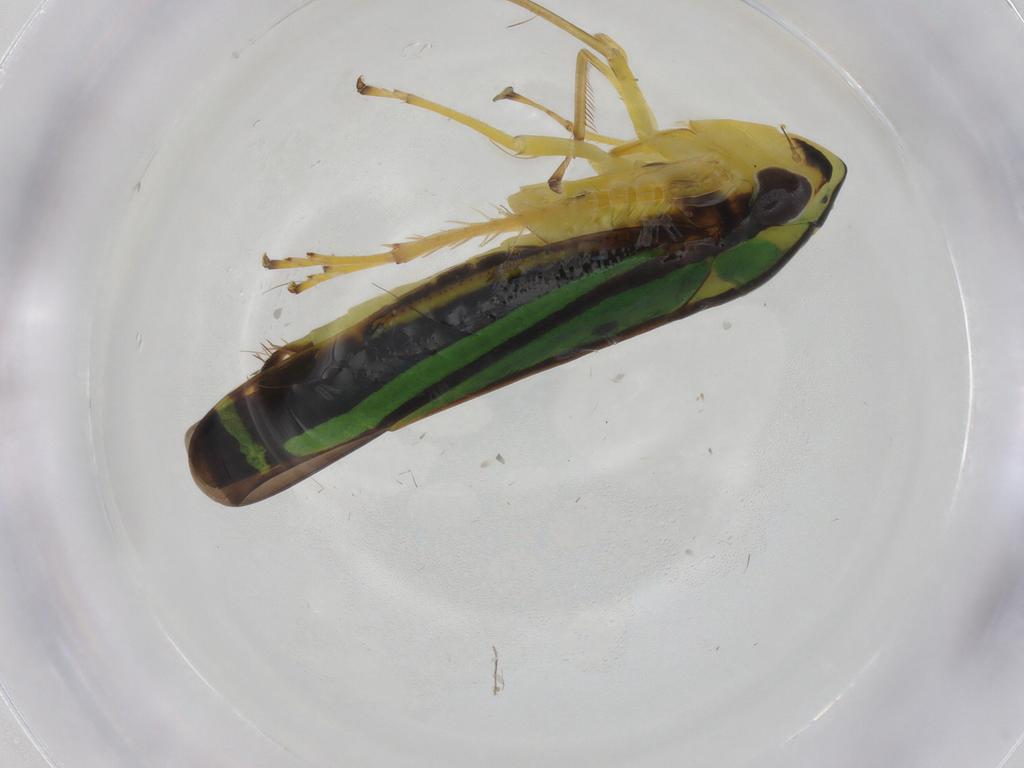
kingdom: Animalia
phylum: Arthropoda
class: Insecta
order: Hemiptera
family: Cicadellidae
